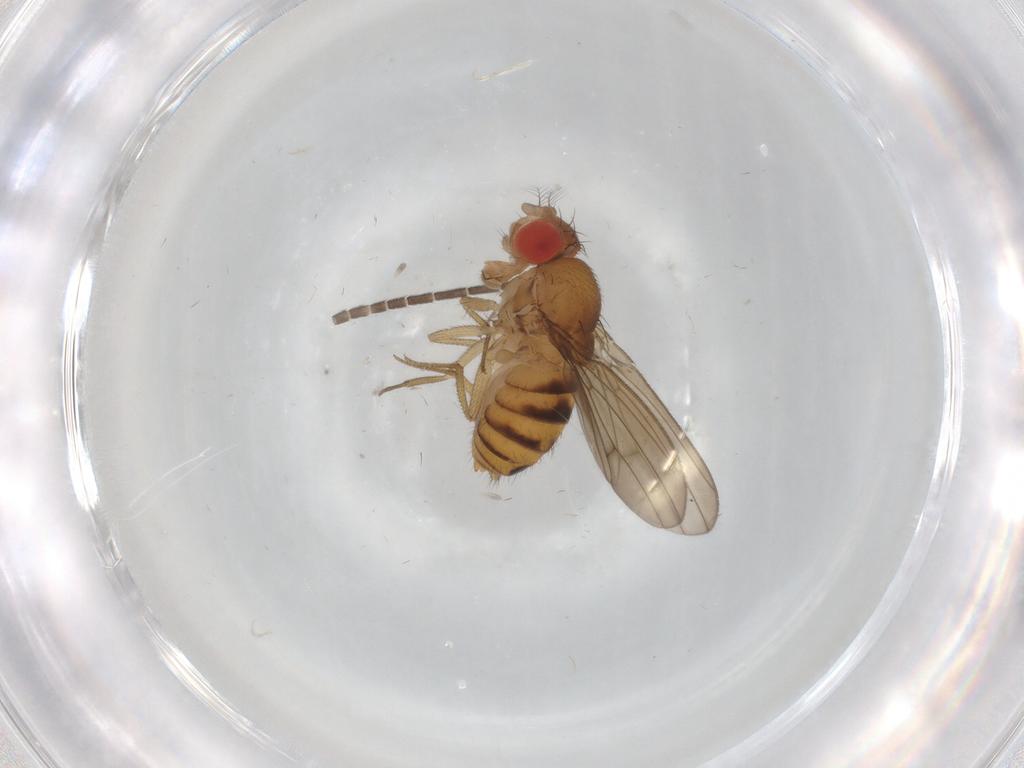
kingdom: Animalia
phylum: Arthropoda
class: Insecta
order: Diptera
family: Drosophilidae
